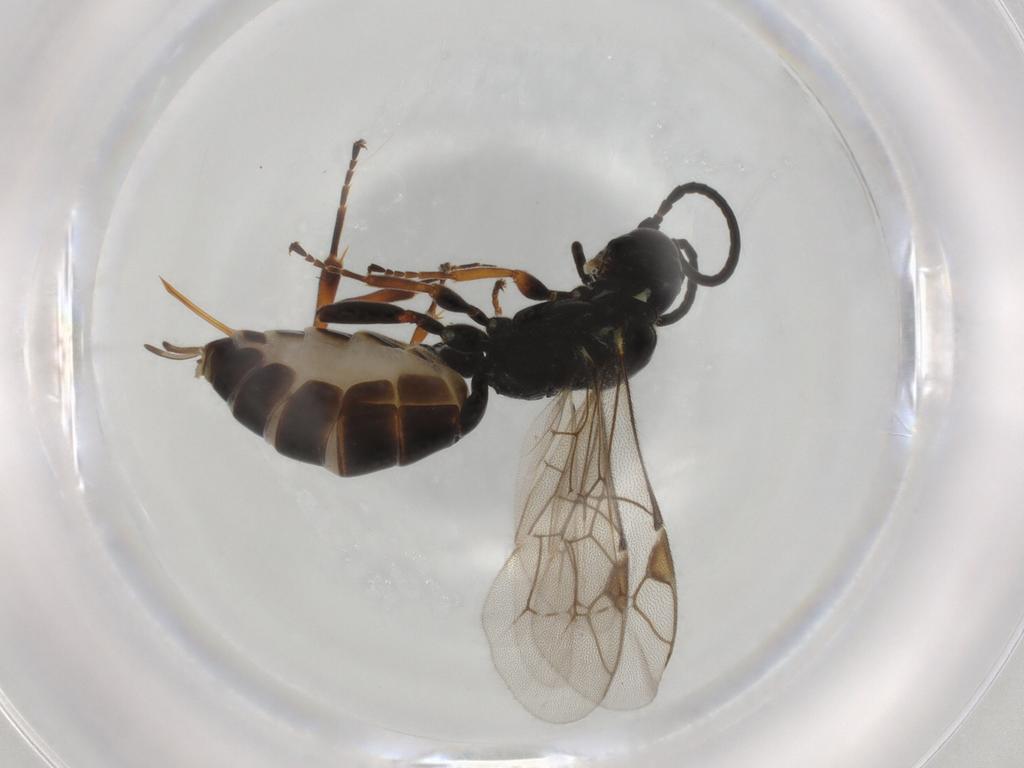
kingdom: Animalia
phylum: Arthropoda
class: Insecta
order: Hymenoptera
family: Ichneumonidae
